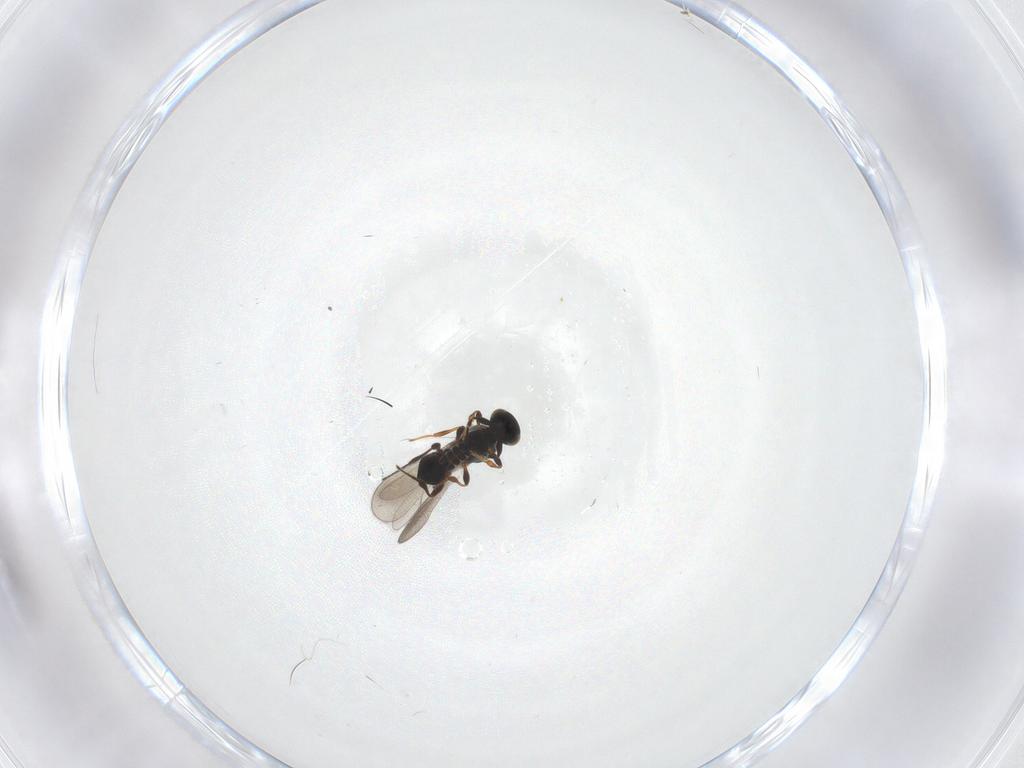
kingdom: Animalia
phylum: Arthropoda
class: Insecta
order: Hymenoptera
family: Platygastridae
